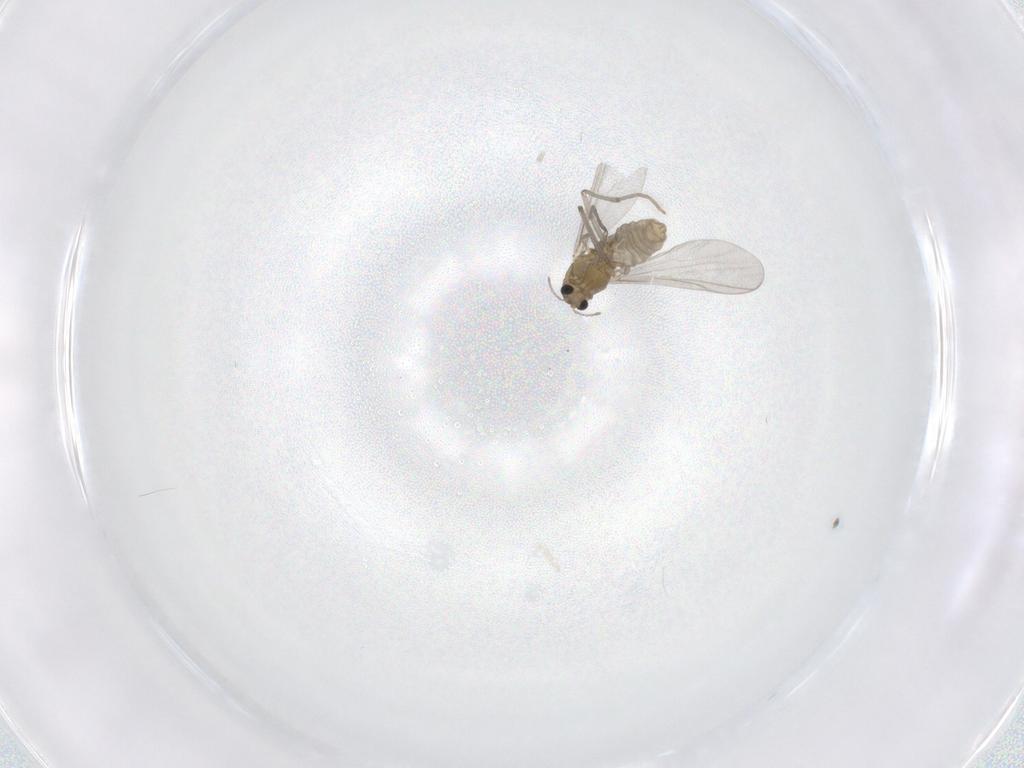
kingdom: Animalia
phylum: Arthropoda
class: Insecta
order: Diptera
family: Chironomidae
